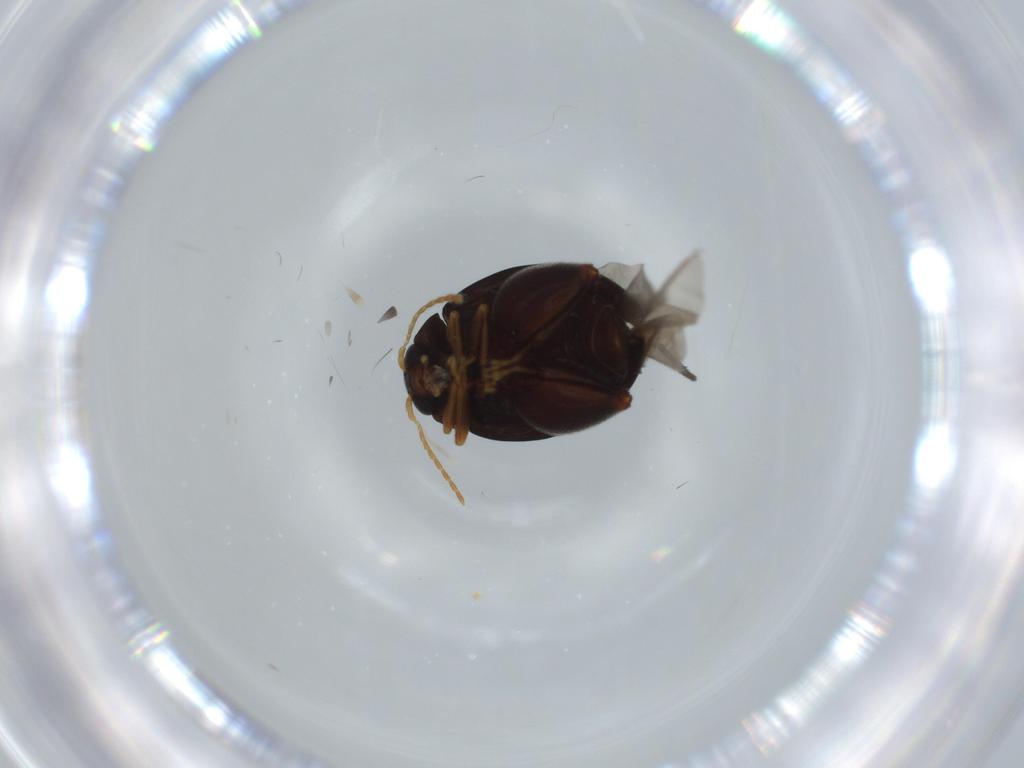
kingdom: Animalia
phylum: Arthropoda
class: Insecta
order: Coleoptera
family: Chrysomelidae
